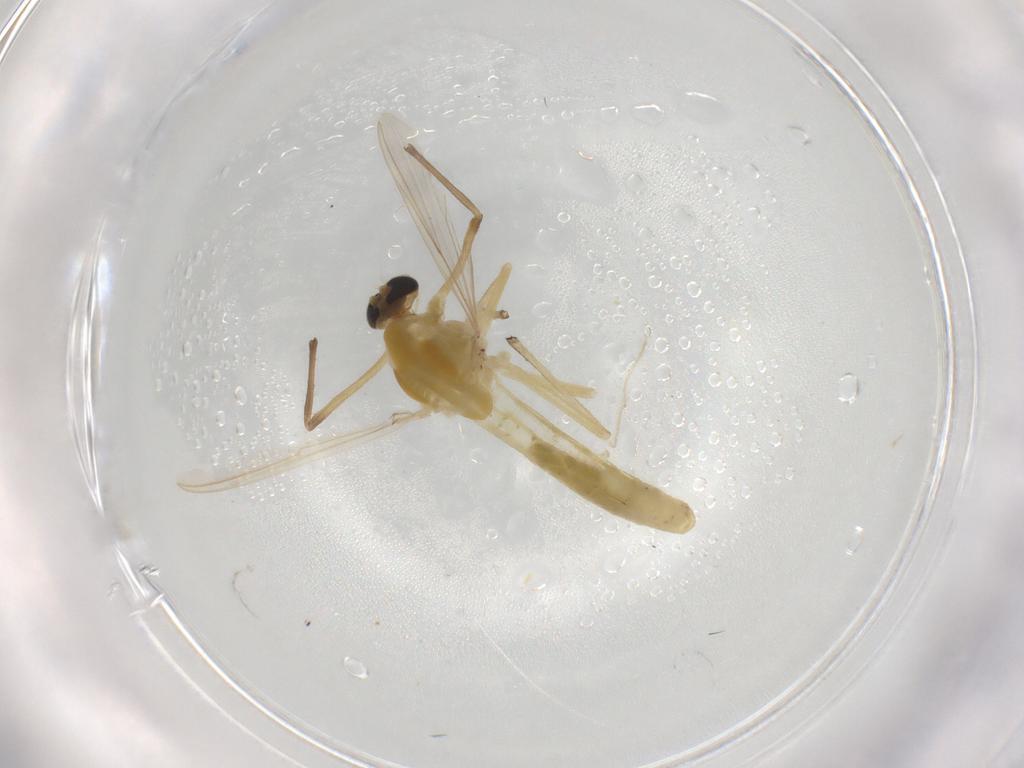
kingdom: Animalia
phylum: Arthropoda
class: Insecta
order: Diptera
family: Chironomidae
